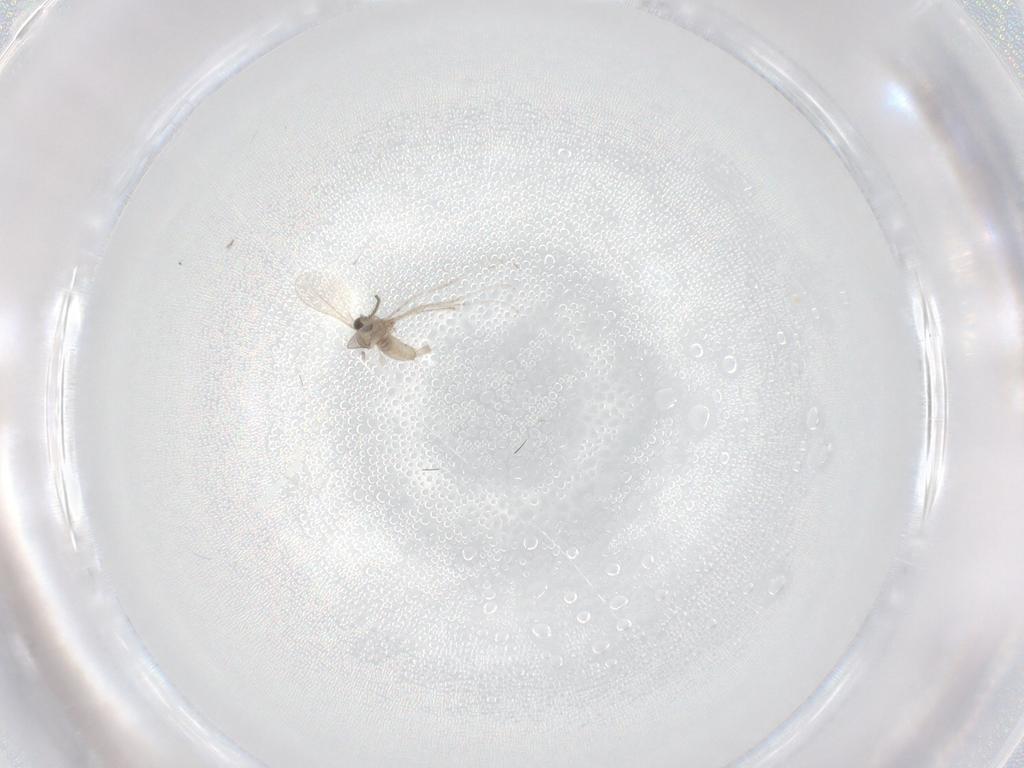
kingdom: Animalia
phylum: Arthropoda
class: Insecta
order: Diptera
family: Cecidomyiidae
